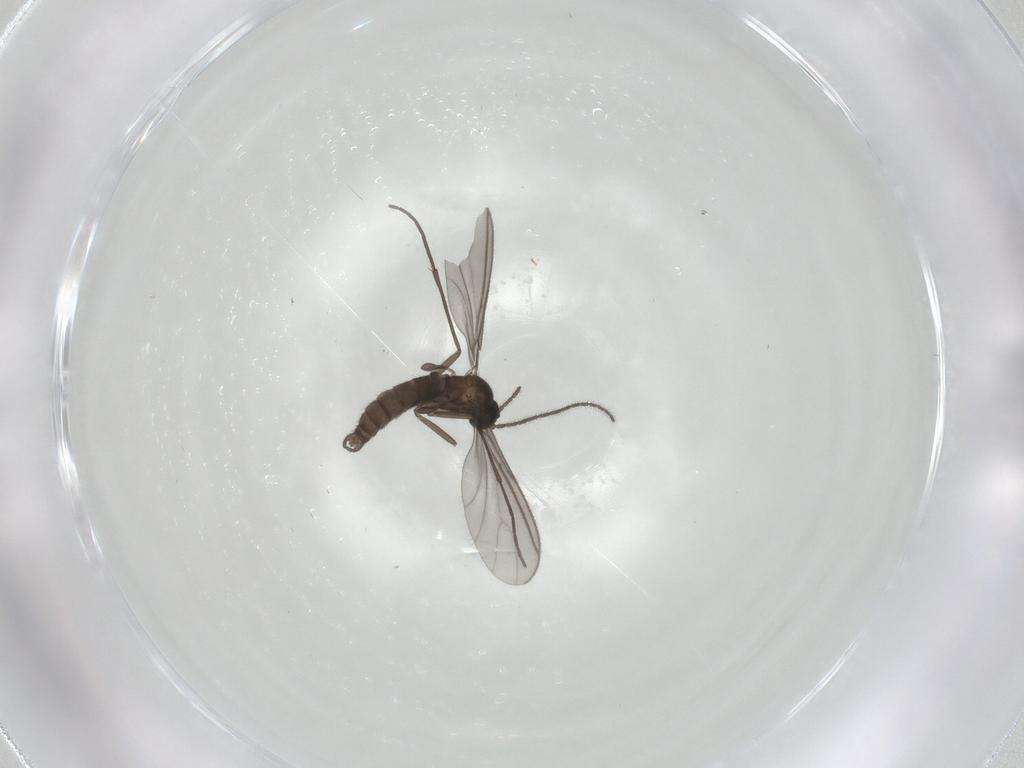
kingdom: Animalia
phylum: Arthropoda
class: Insecta
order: Diptera
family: Sciaridae
